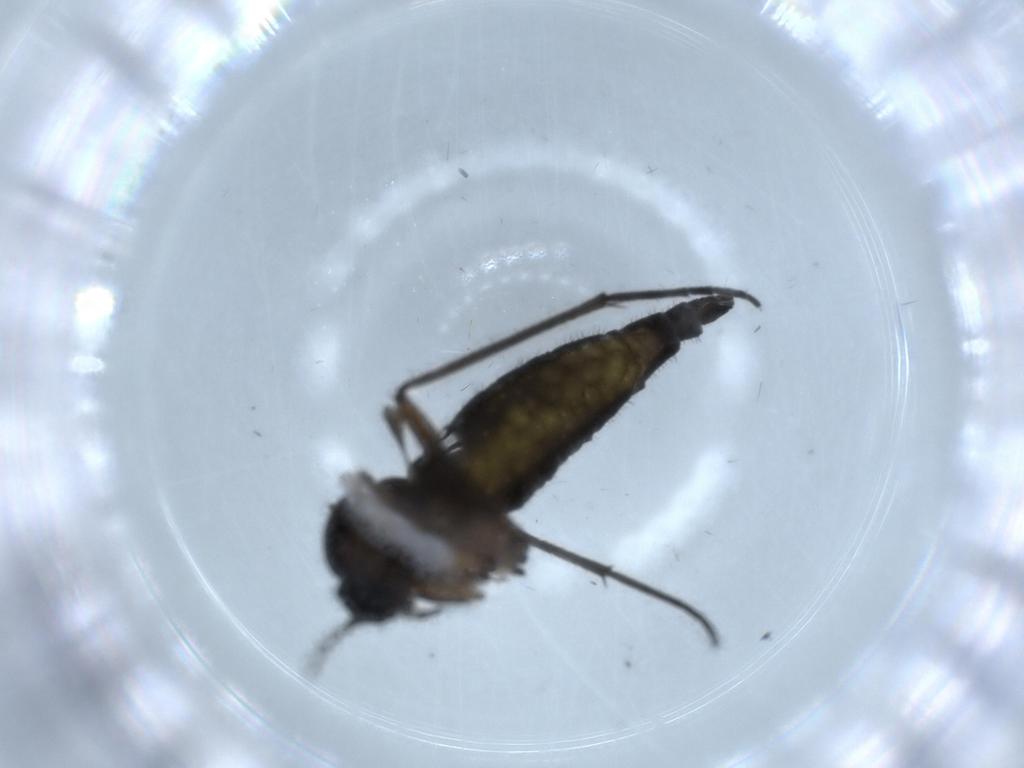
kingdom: Animalia
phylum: Arthropoda
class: Insecta
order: Diptera
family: Sciaridae
